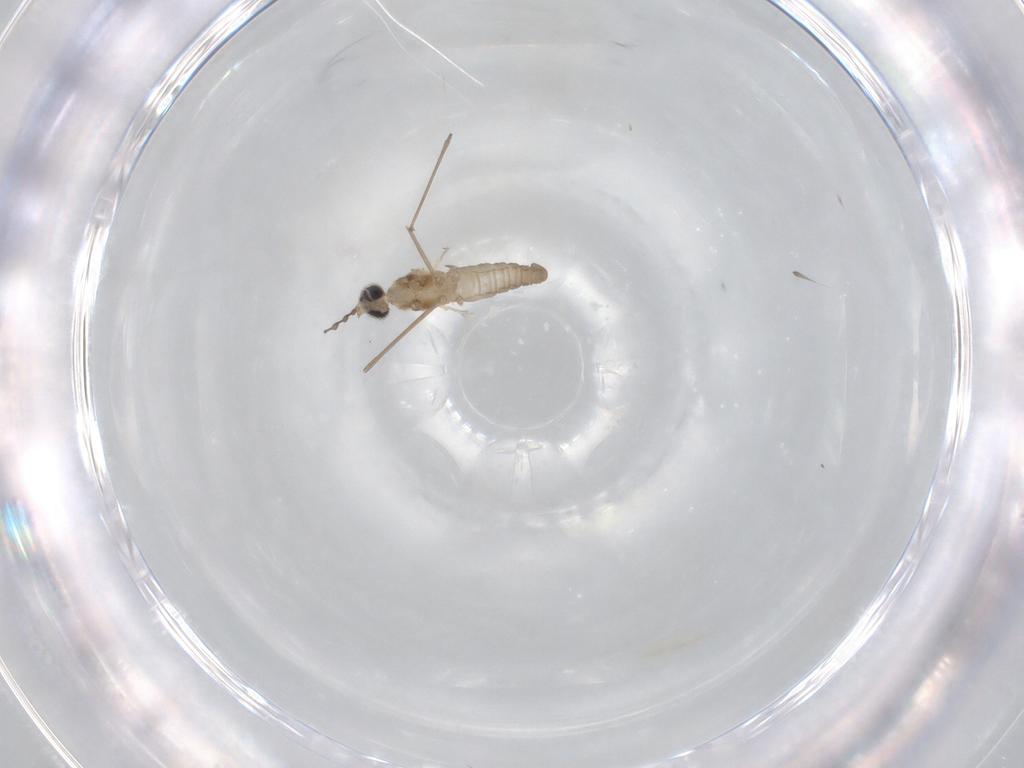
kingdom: Animalia
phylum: Arthropoda
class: Insecta
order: Diptera
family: Cecidomyiidae
